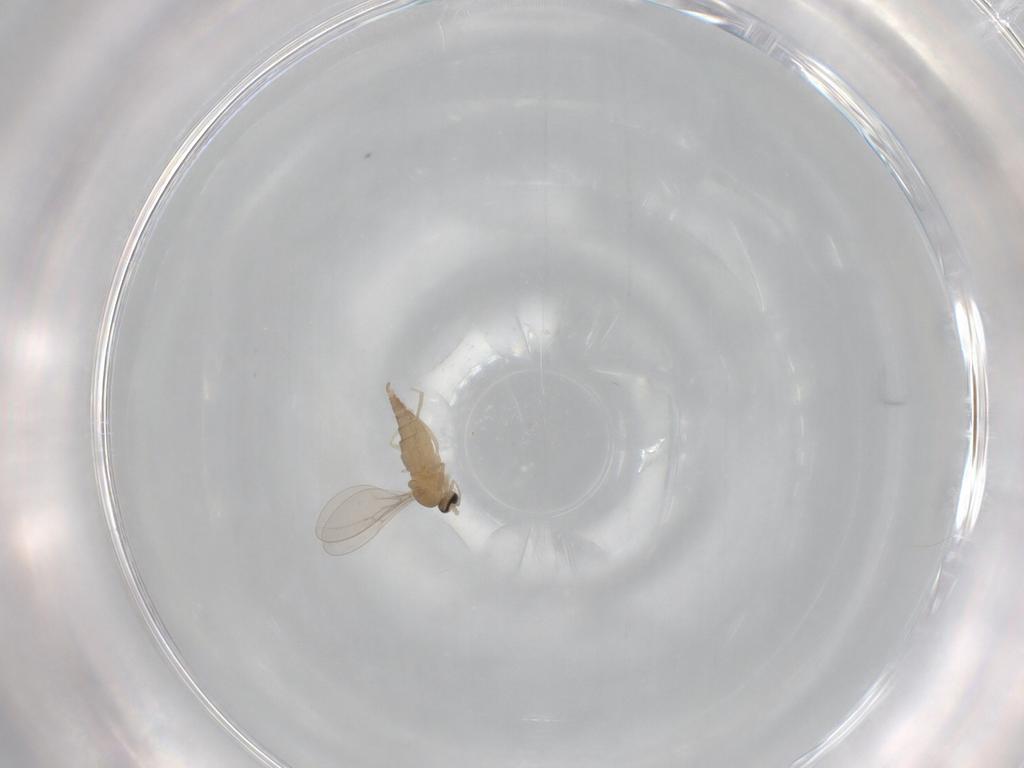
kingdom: Animalia
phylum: Arthropoda
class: Insecta
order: Diptera
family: Cecidomyiidae
